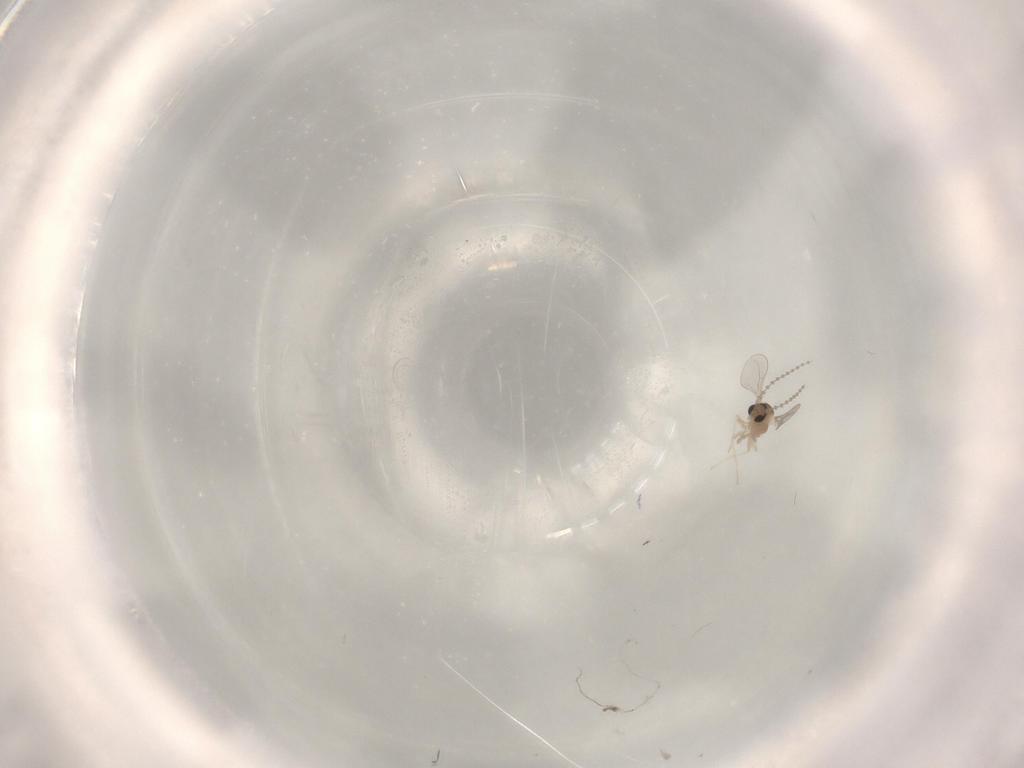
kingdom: Animalia
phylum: Arthropoda
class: Insecta
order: Diptera
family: Cecidomyiidae
